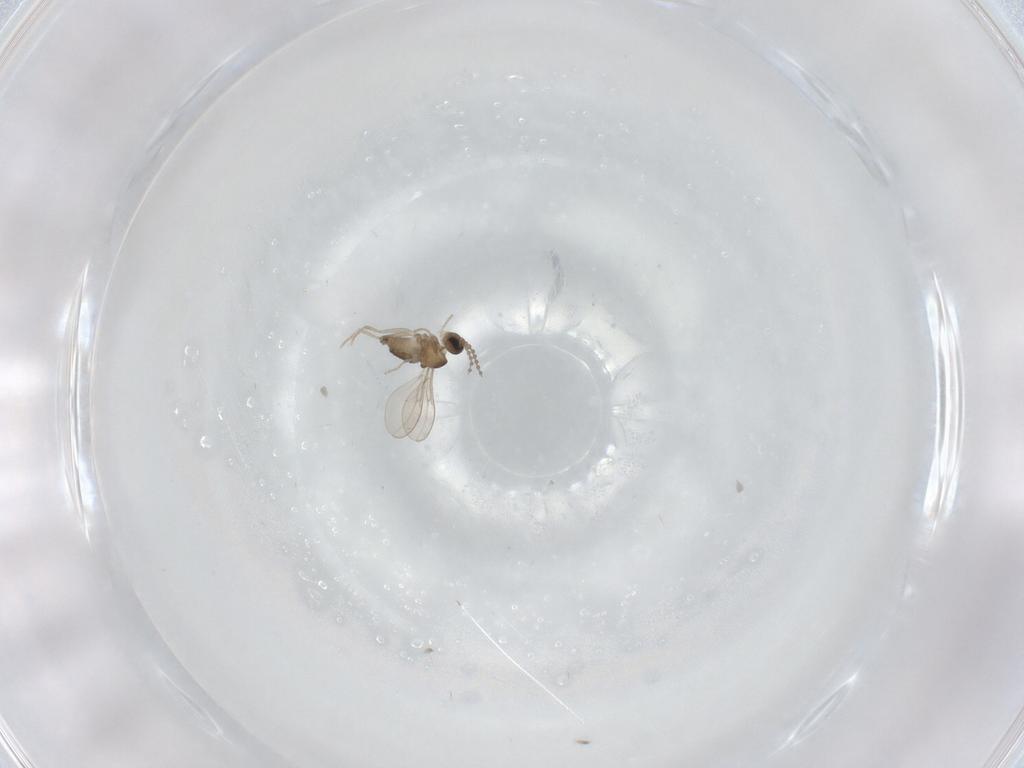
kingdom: Animalia
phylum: Arthropoda
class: Insecta
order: Diptera
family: Cecidomyiidae
